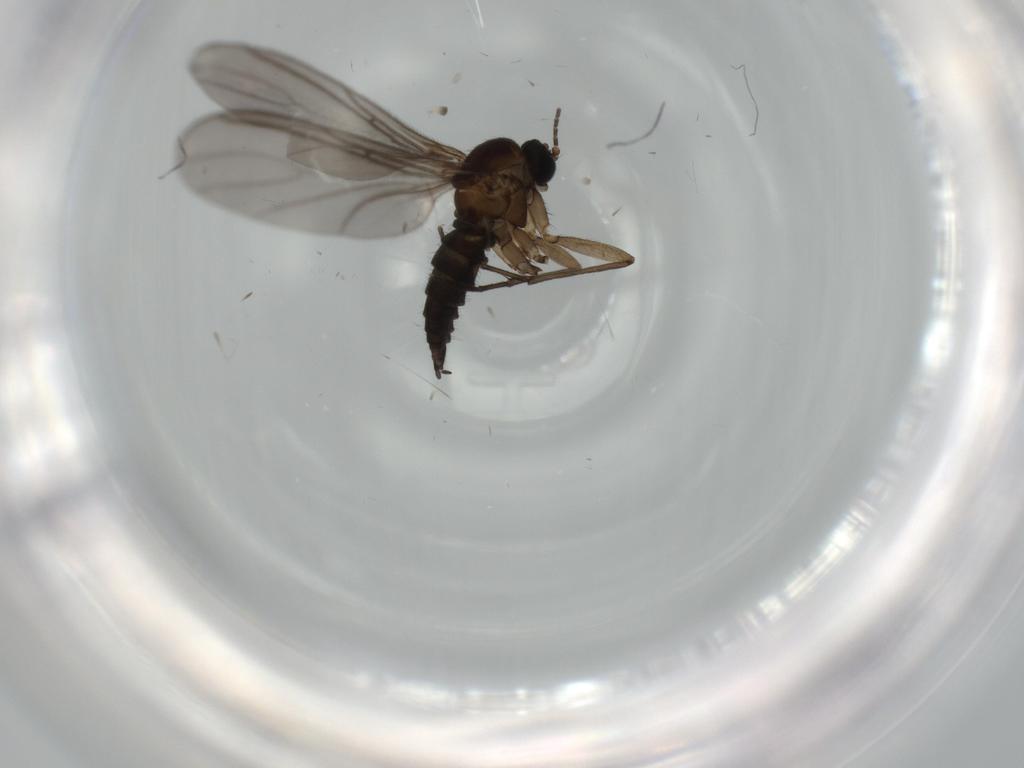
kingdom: Animalia
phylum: Arthropoda
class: Insecta
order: Diptera
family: Sciaridae
